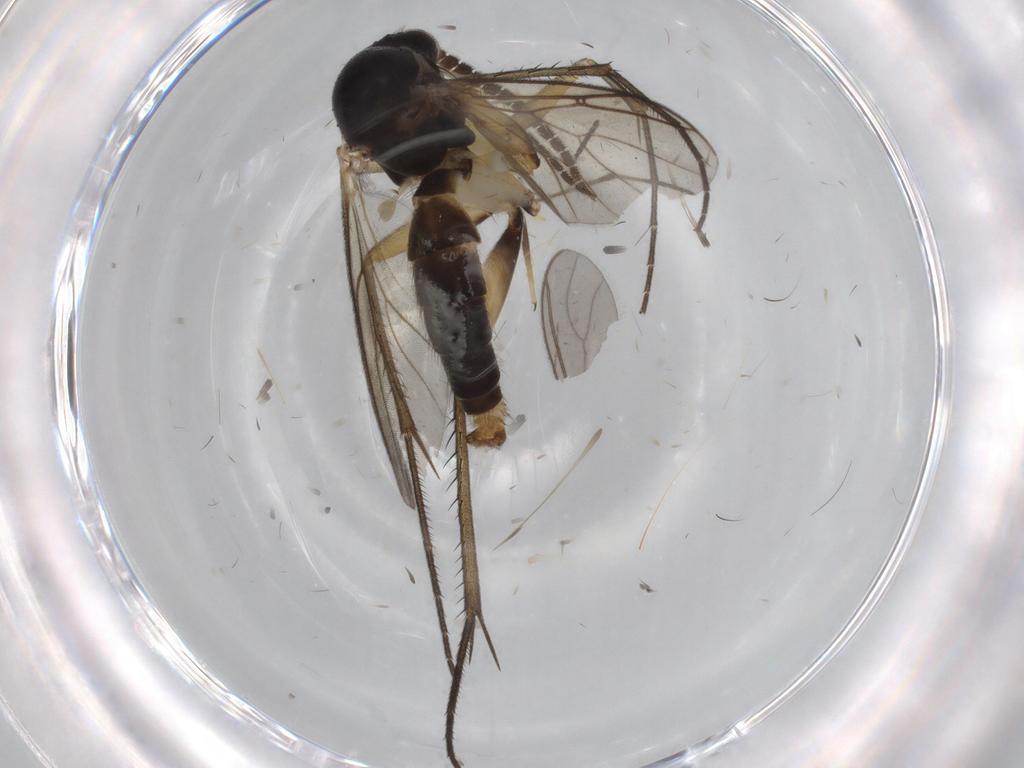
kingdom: Animalia
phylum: Arthropoda
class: Insecta
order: Diptera
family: Sciaridae
